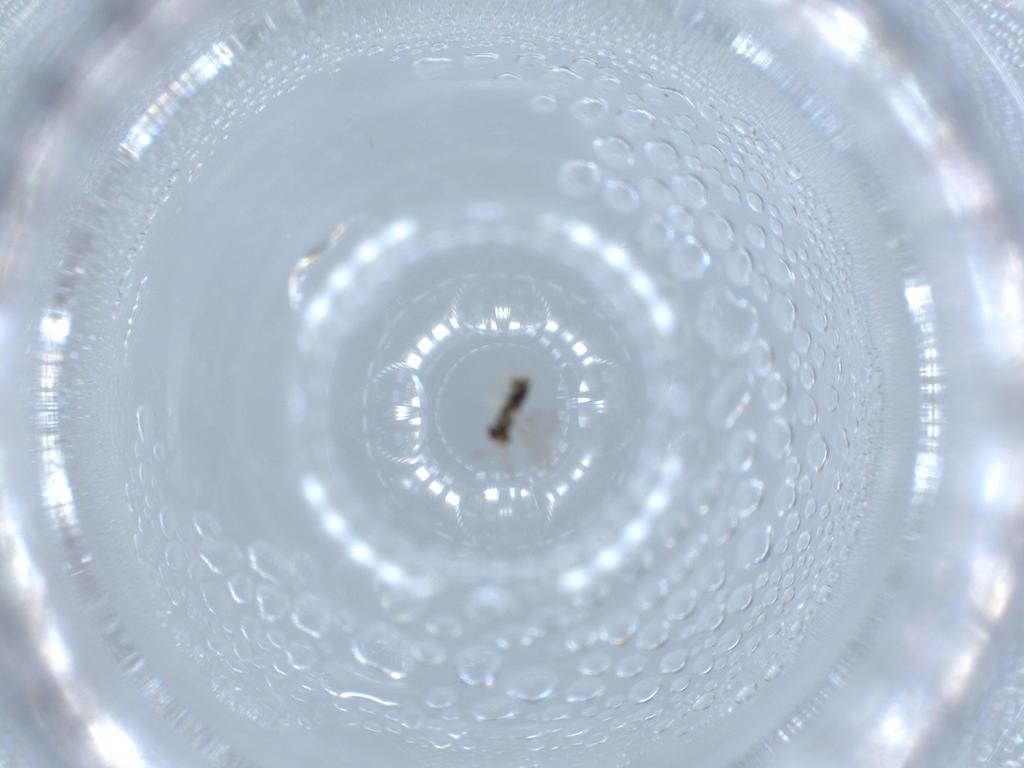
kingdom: Animalia
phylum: Arthropoda
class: Insecta
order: Hymenoptera
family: Aphelinidae
